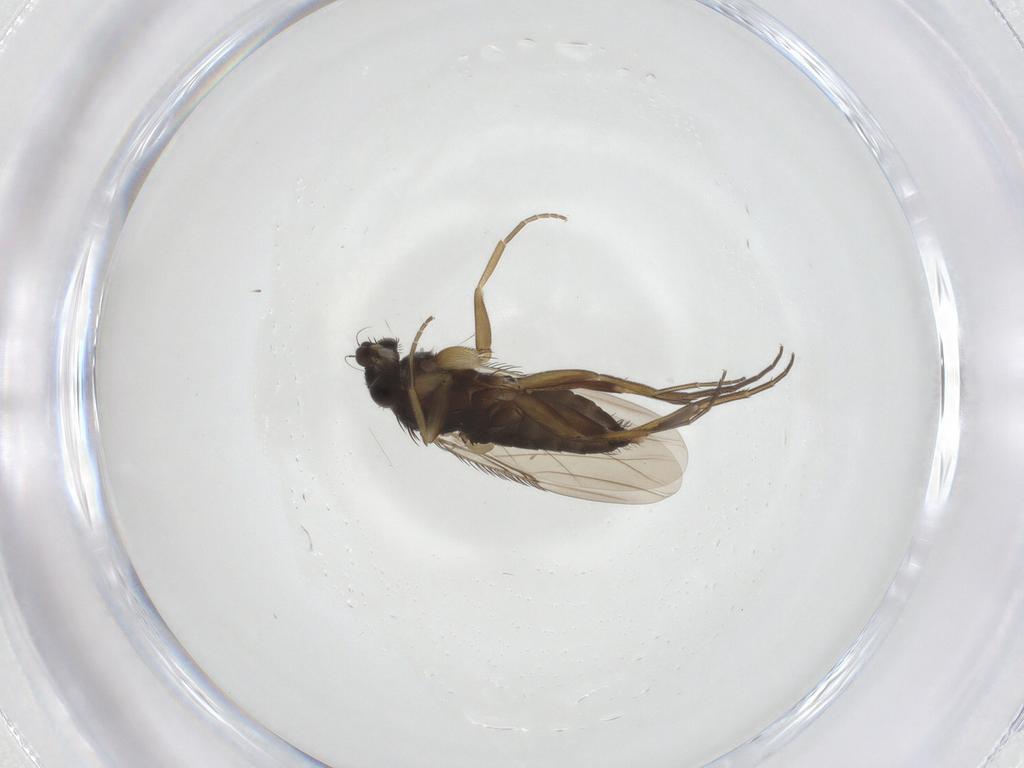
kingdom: Animalia
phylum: Arthropoda
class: Insecta
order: Diptera
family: Phoridae
